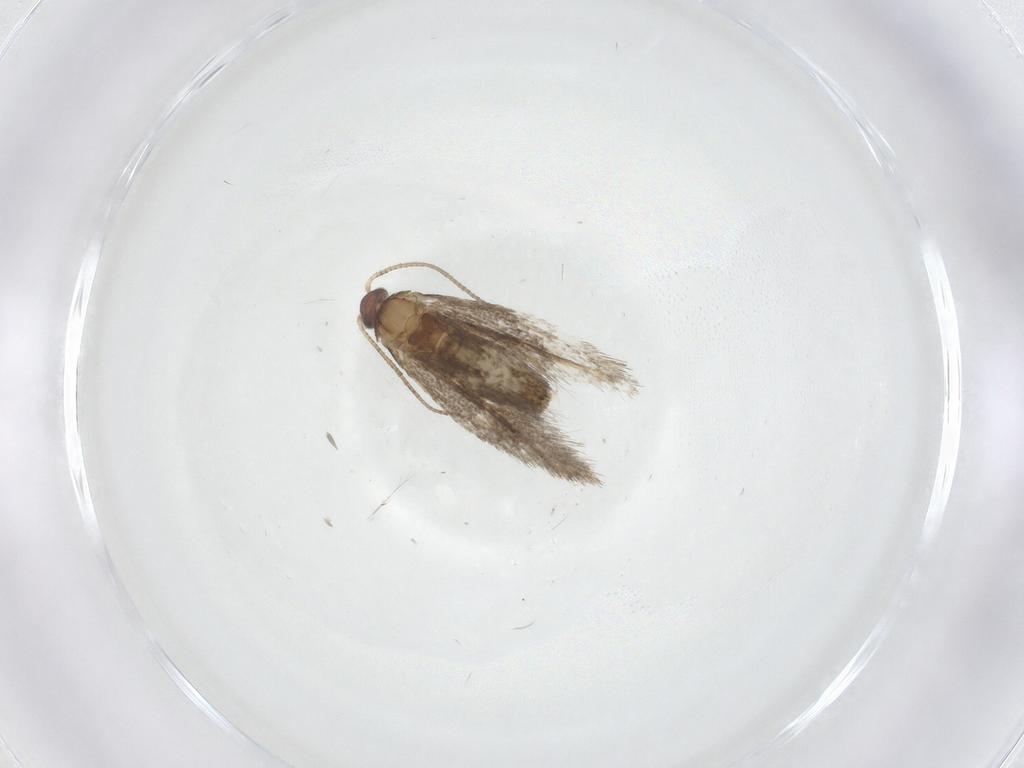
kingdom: Animalia
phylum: Arthropoda
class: Insecta
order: Lepidoptera
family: Tineidae
